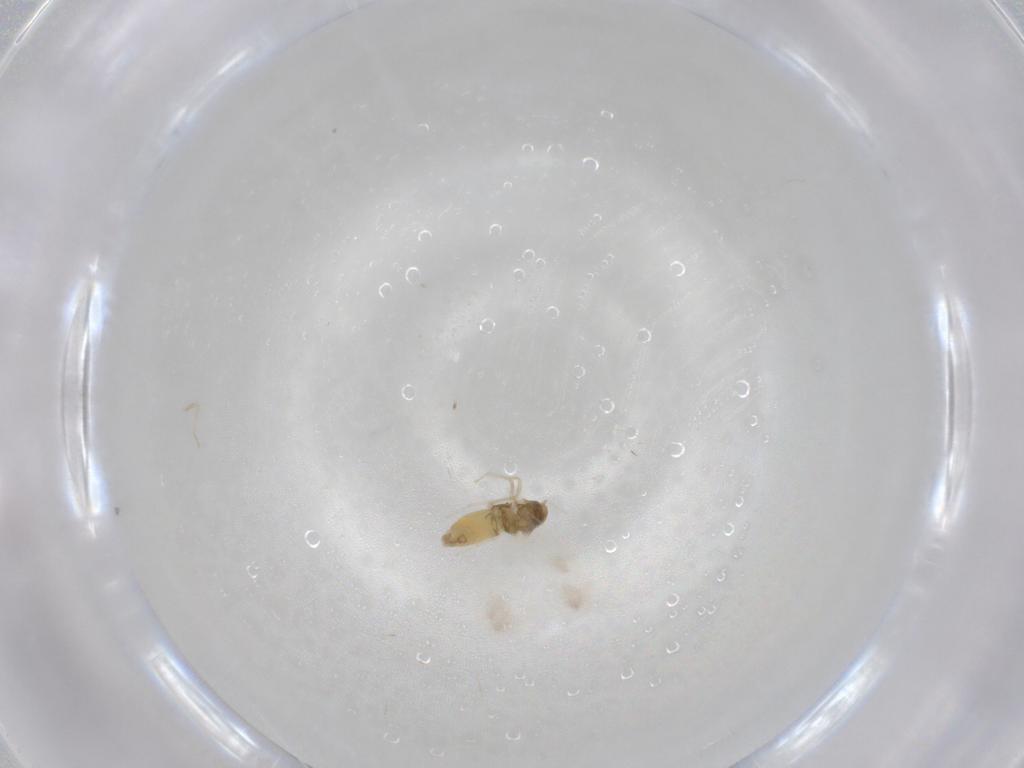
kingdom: Animalia
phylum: Arthropoda
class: Insecta
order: Hemiptera
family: Aleyrodidae
